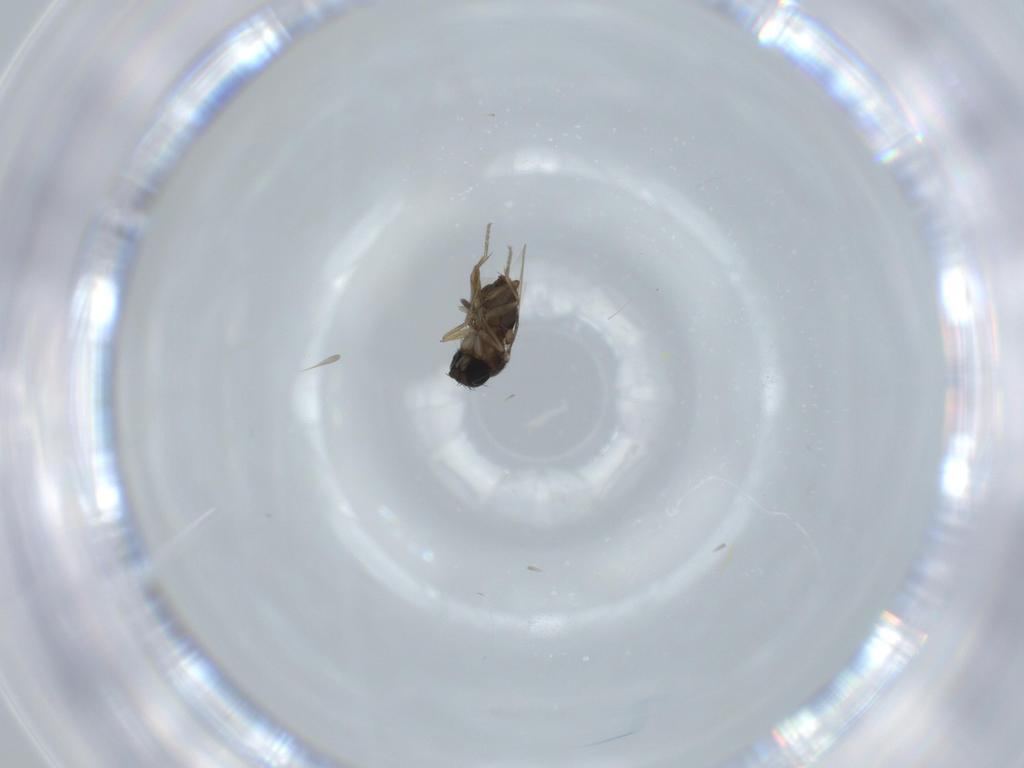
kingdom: Animalia
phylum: Arthropoda
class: Insecta
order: Diptera
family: Phoridae
